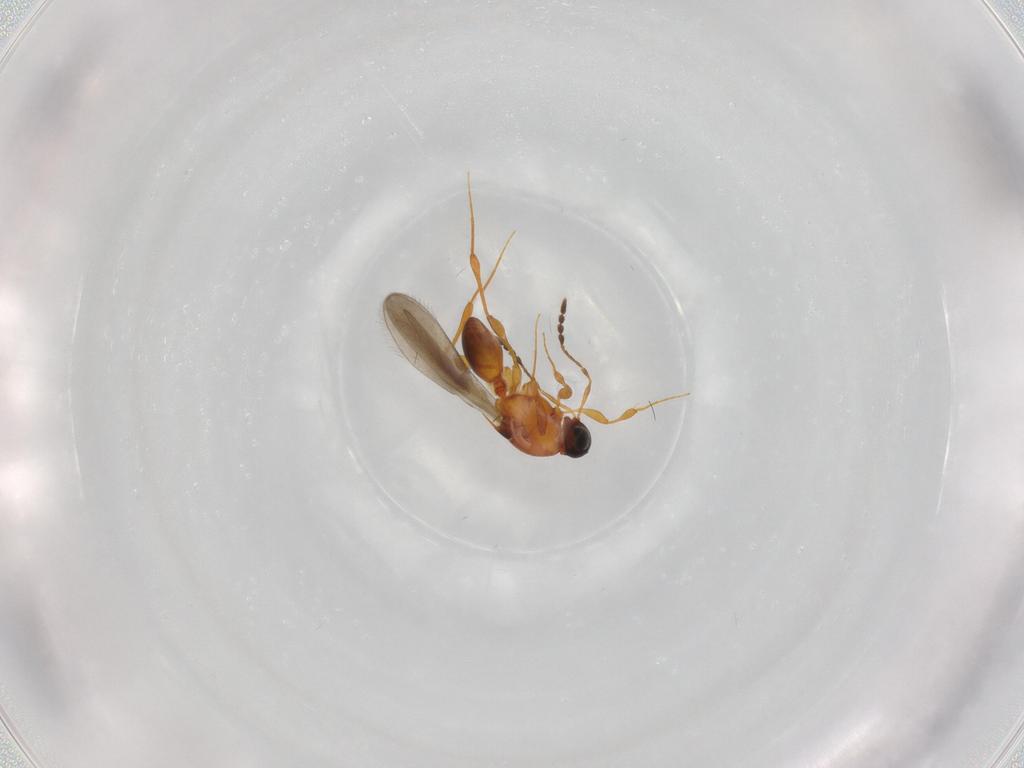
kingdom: Animalia
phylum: Arthropoda
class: Insecta
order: Hymenoptera
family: Platygastridae
